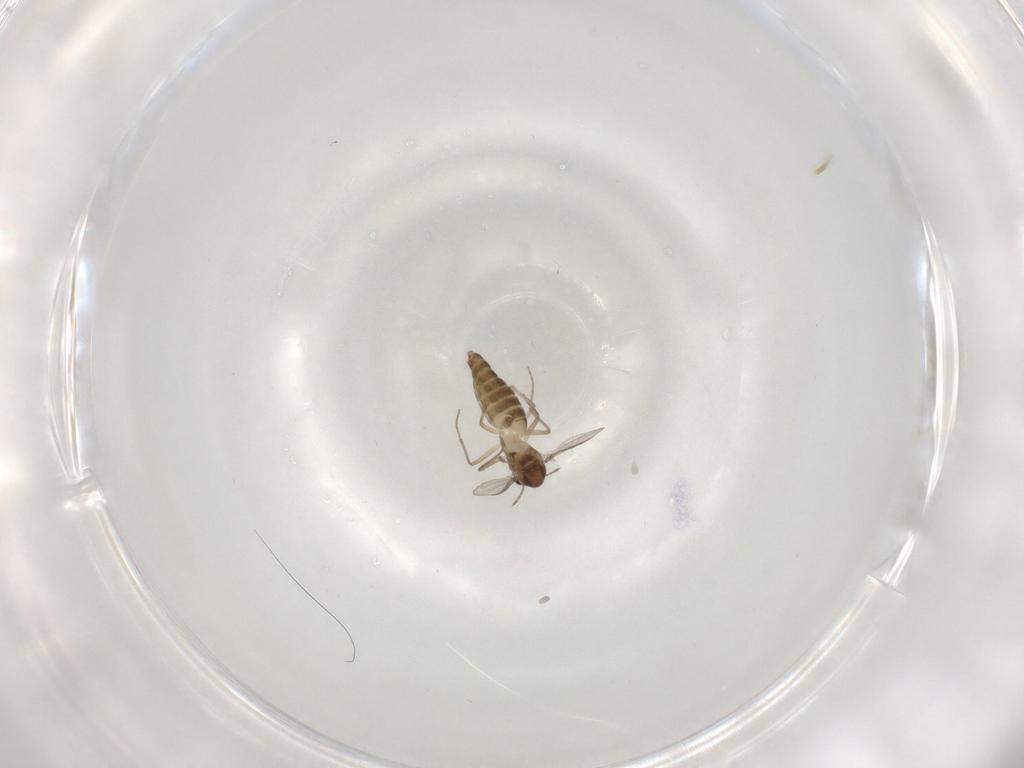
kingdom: Animalia
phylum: Arthropoda
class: Insecta
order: Diptera
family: Chironomidae
